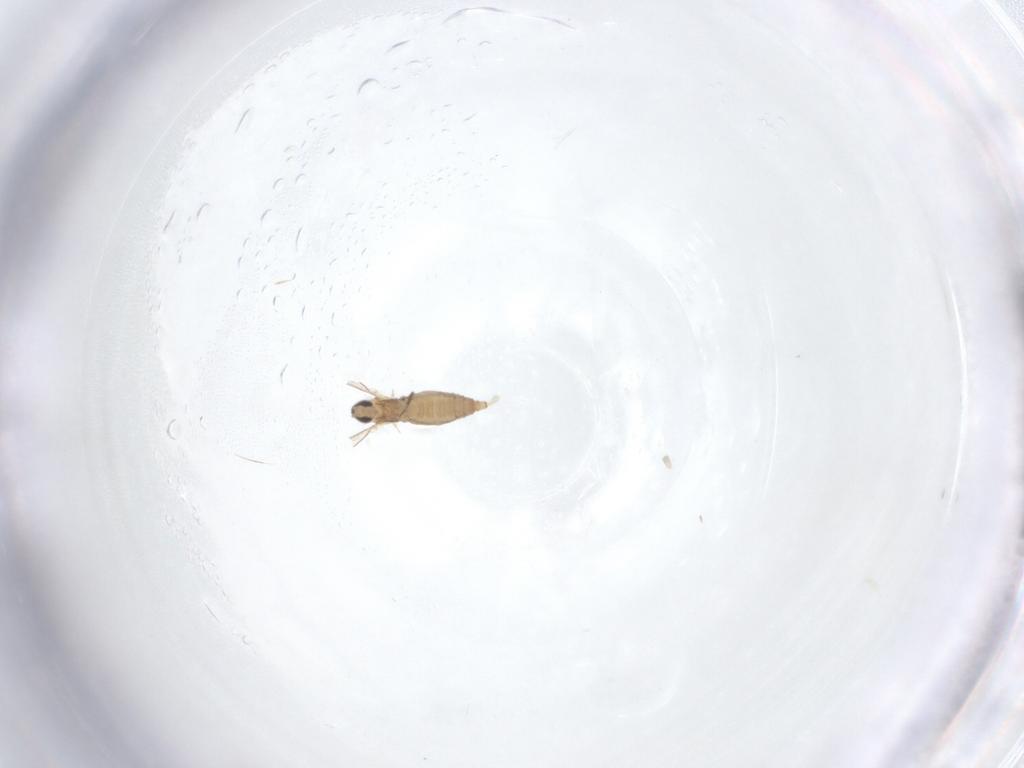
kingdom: Animalia
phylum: Arthropoda
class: Insecta
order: Diptera
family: Cecidomyiidae
